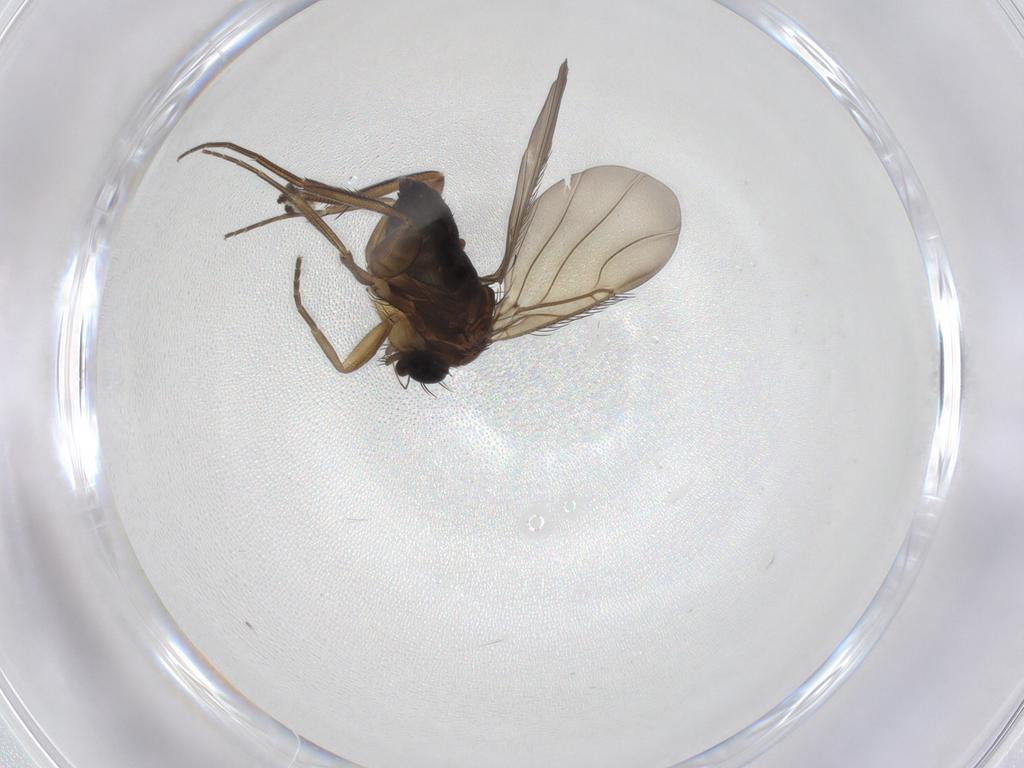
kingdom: Animalia
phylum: Arthropoda
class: Insecta
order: Diptera
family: Phoridae
